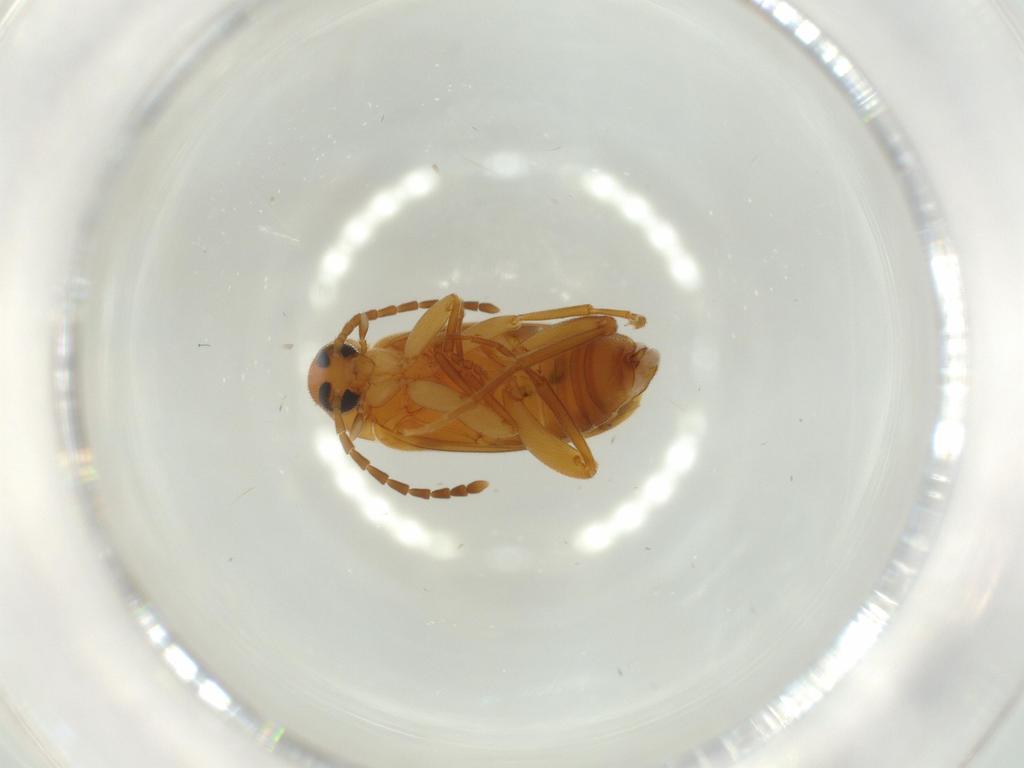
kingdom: Animalia
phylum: Arthropoda
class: Insecta
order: Coleoptera
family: Scraptiidae
